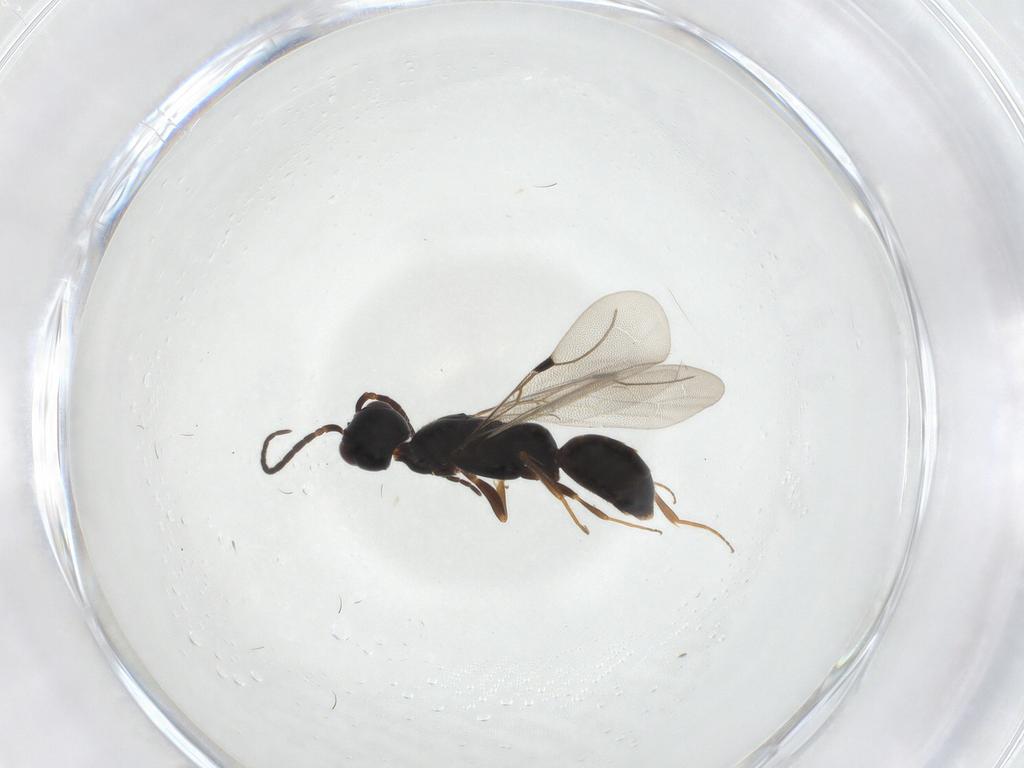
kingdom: Animalia
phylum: Arthropoda
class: Insecta
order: Hymenoptera
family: Bethylidae
